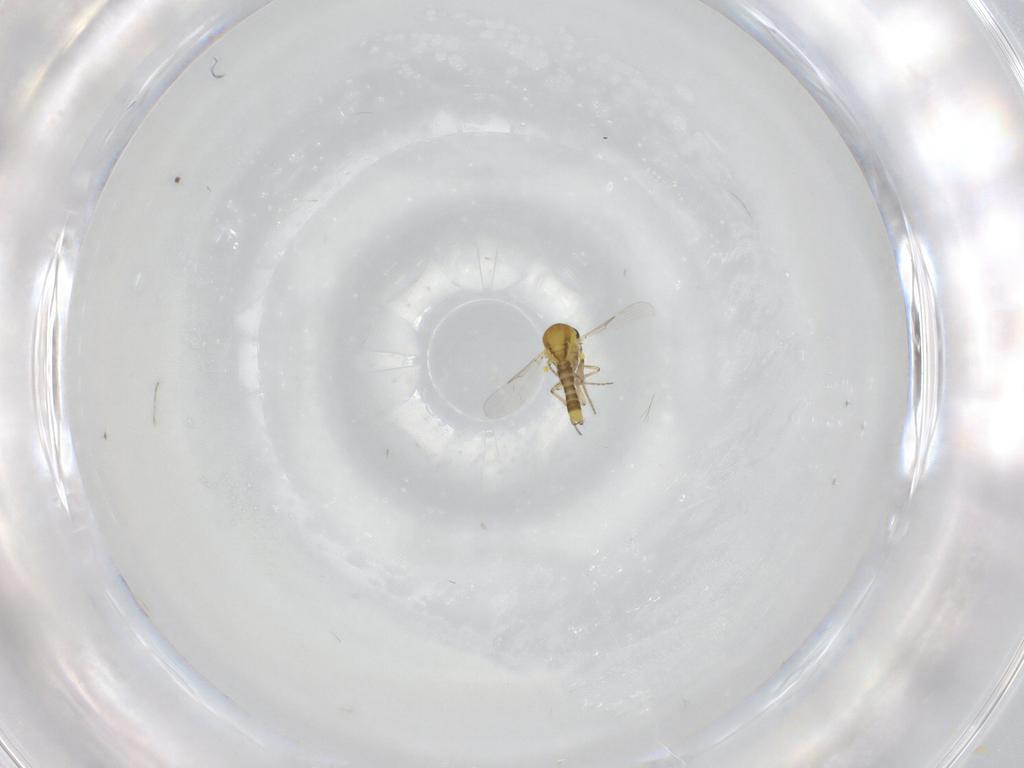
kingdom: Animalia
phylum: Arthropoda
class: Insecta
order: Diptera
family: Ceratopogonidae
